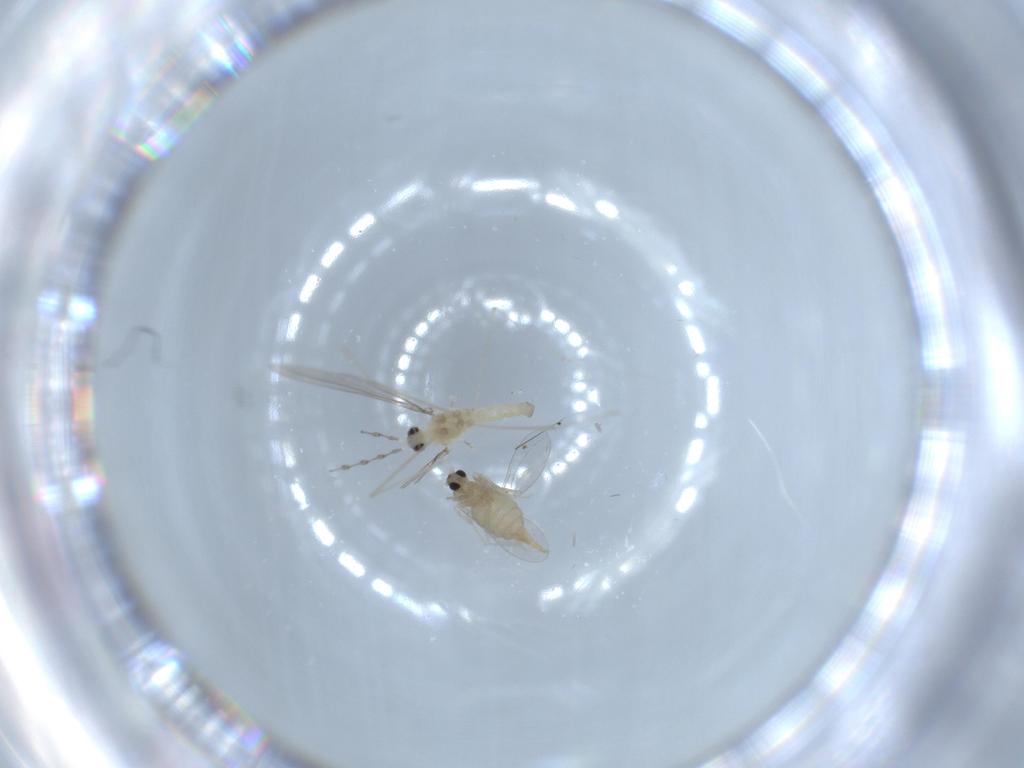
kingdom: Animalia
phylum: Arthropoda
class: Insecta
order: Diptera
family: Cecidomyiidae
